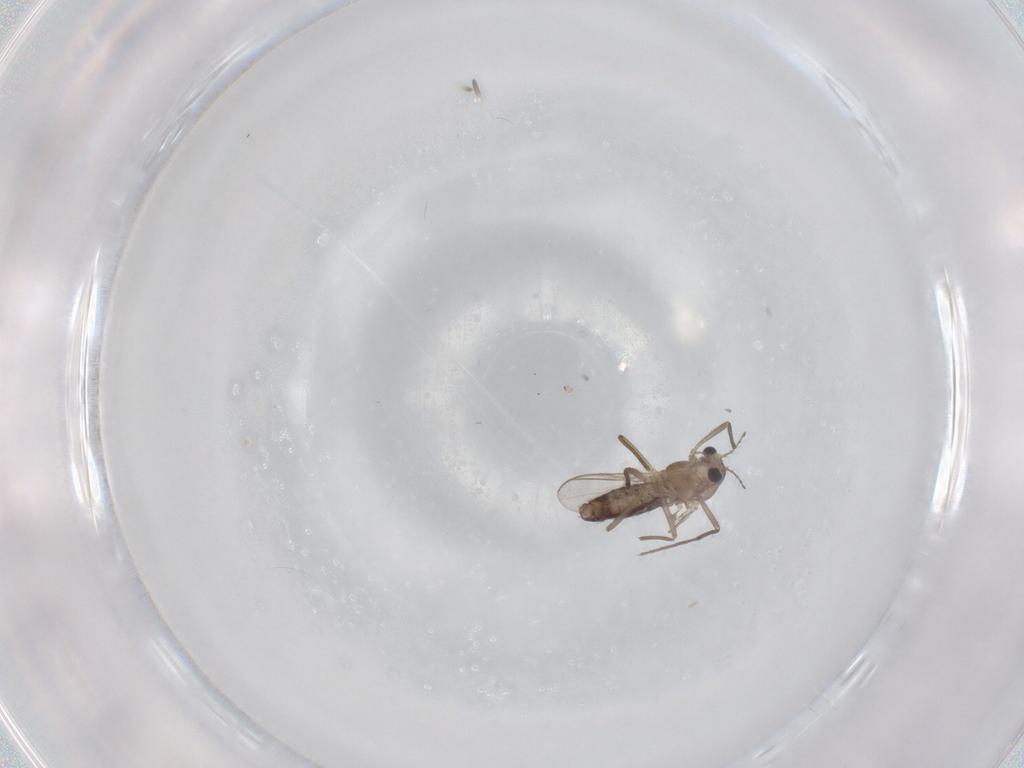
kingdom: Animalia
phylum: Arthropoda
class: Insecta
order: Diptera
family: Chironomidae
